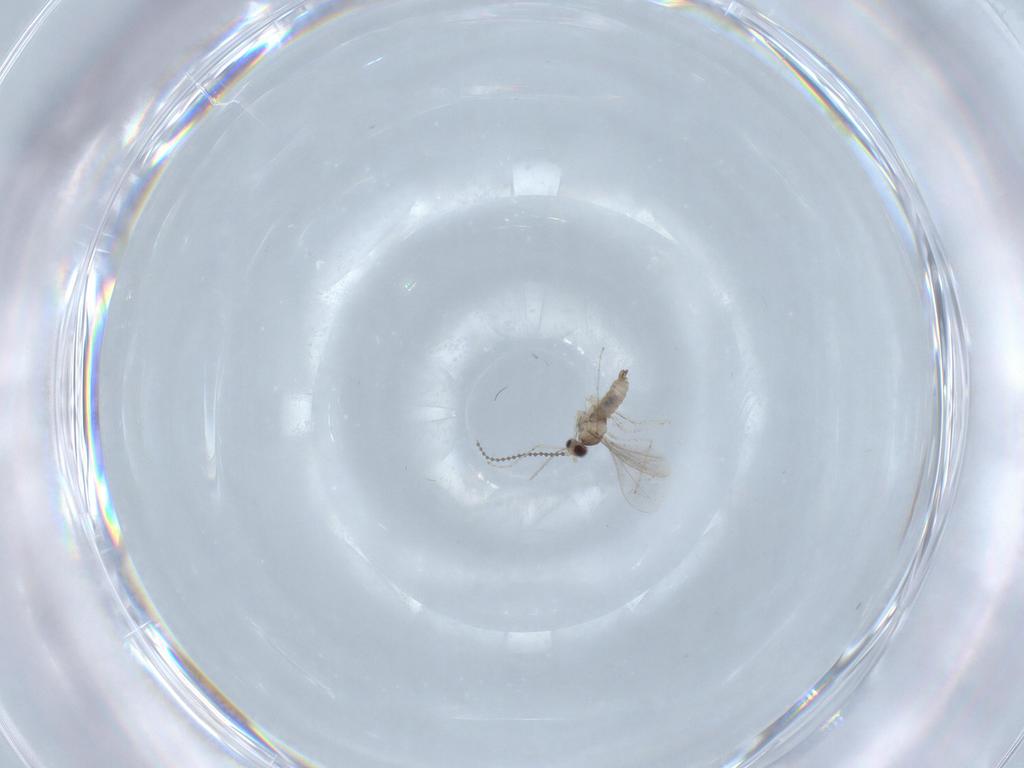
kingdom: Animalia
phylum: Arthropoda
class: Insecta
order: Diptera
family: Cecidomyiidae
